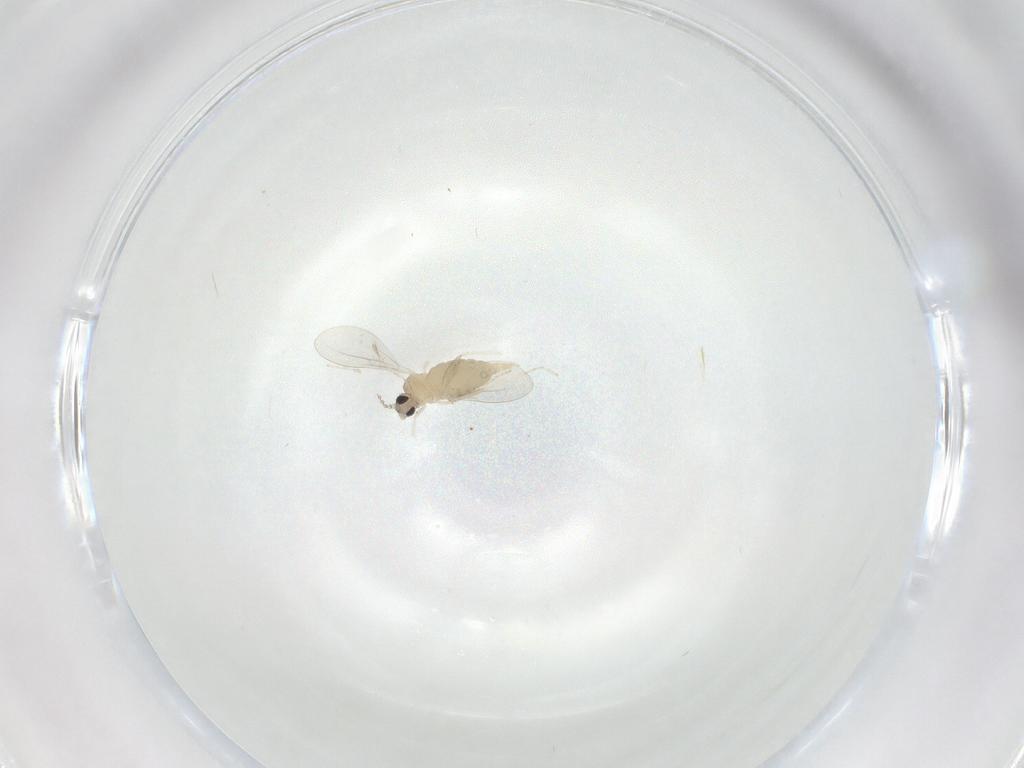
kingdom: Animalia
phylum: Arthropoda
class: Insecta
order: Diptera
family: Cecidomyiidae
